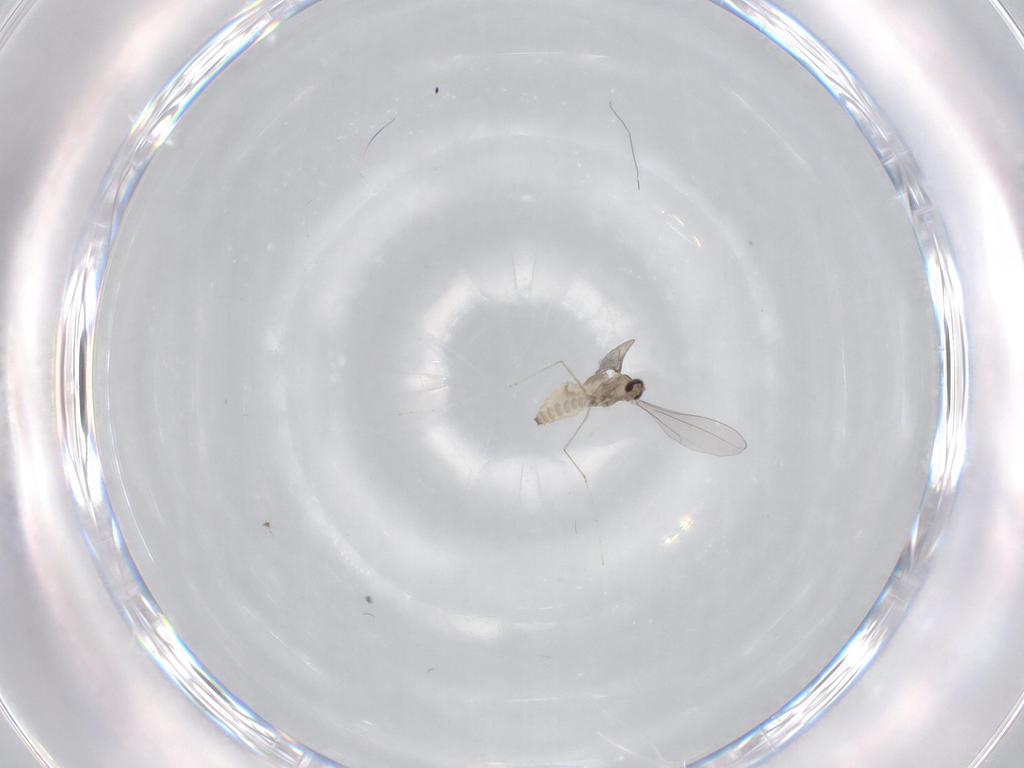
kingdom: Animalia
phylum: Arthropoda
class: Insecta
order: Diptera
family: Cecidomyiidae
